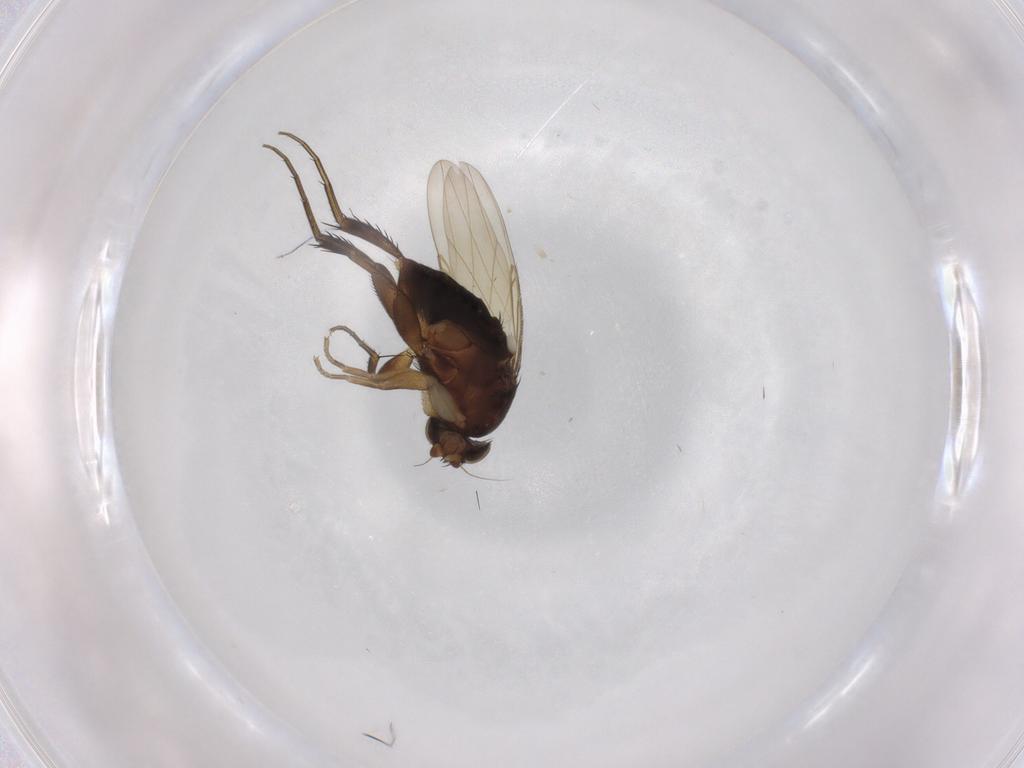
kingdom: Animalia
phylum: Arthropoda
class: Insecta
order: Diptera
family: Phoridae
